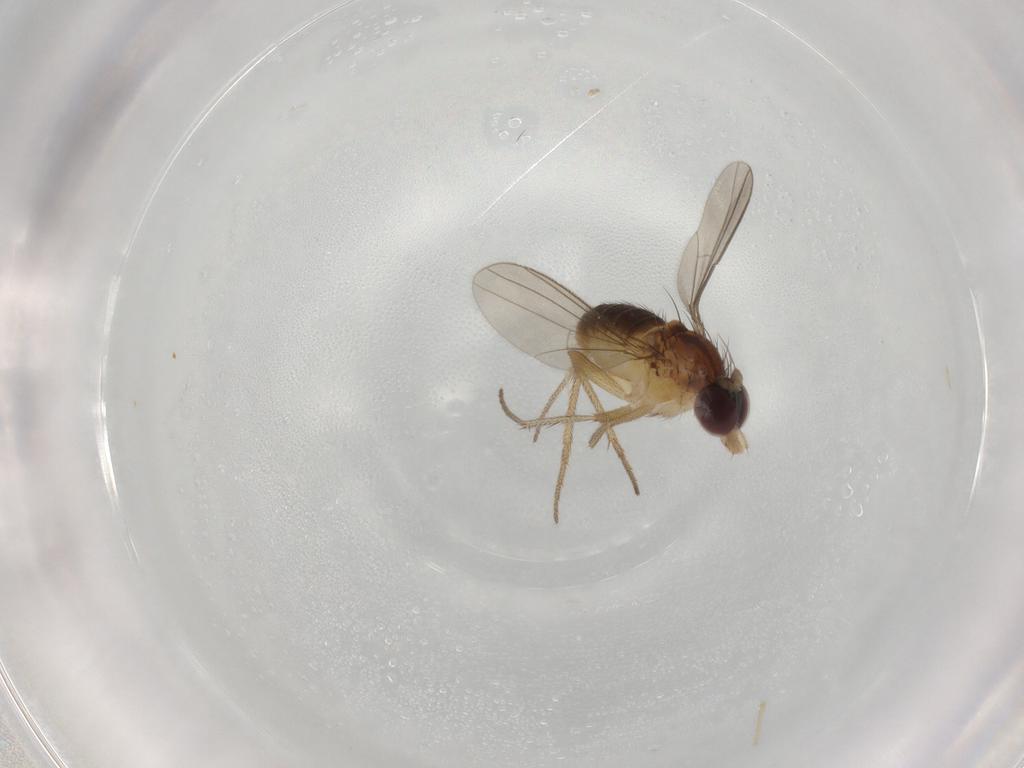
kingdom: Animalia
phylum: Arthropoda
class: Insecta
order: Diptera
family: Dolichopodidae
